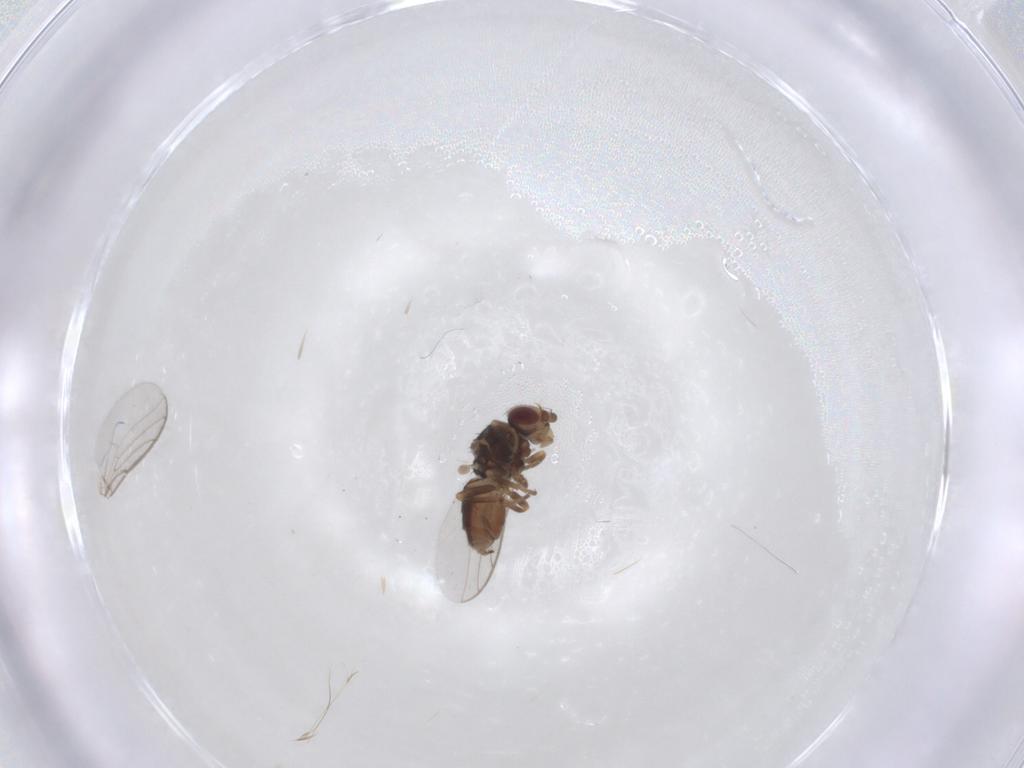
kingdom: Animalia
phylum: Arthropoda
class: Insecta
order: Diptera
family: Chloropidae
